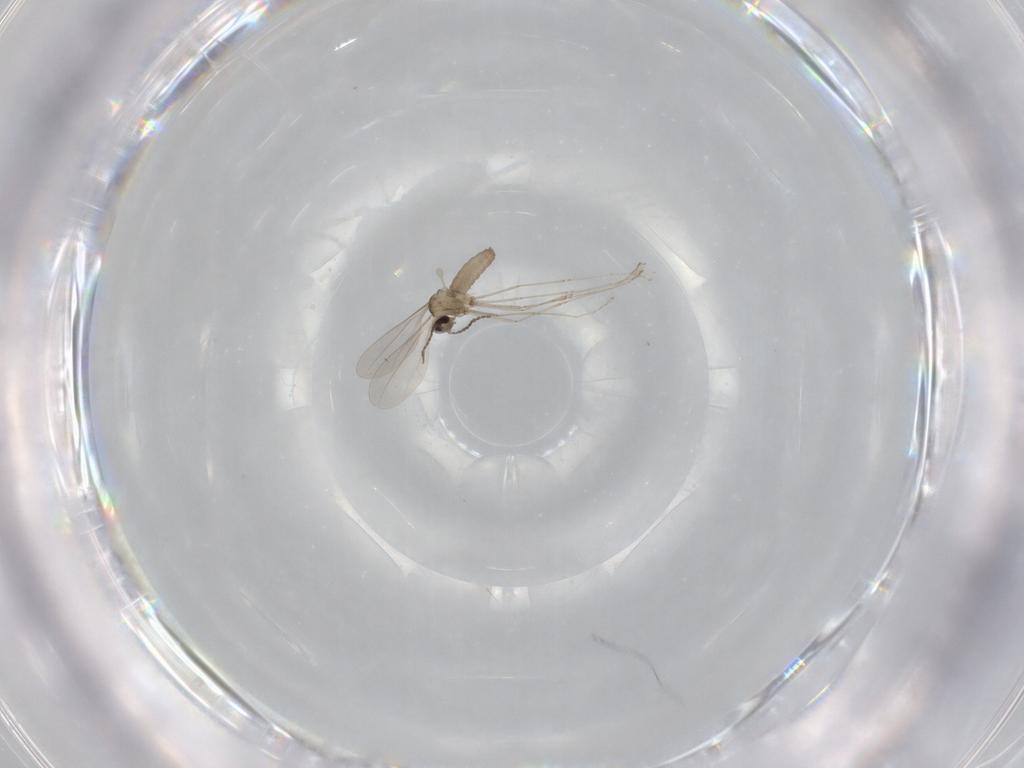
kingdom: Animalia
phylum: Arthropoda
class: Insecta
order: Diptera
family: Cecidomyiidae
